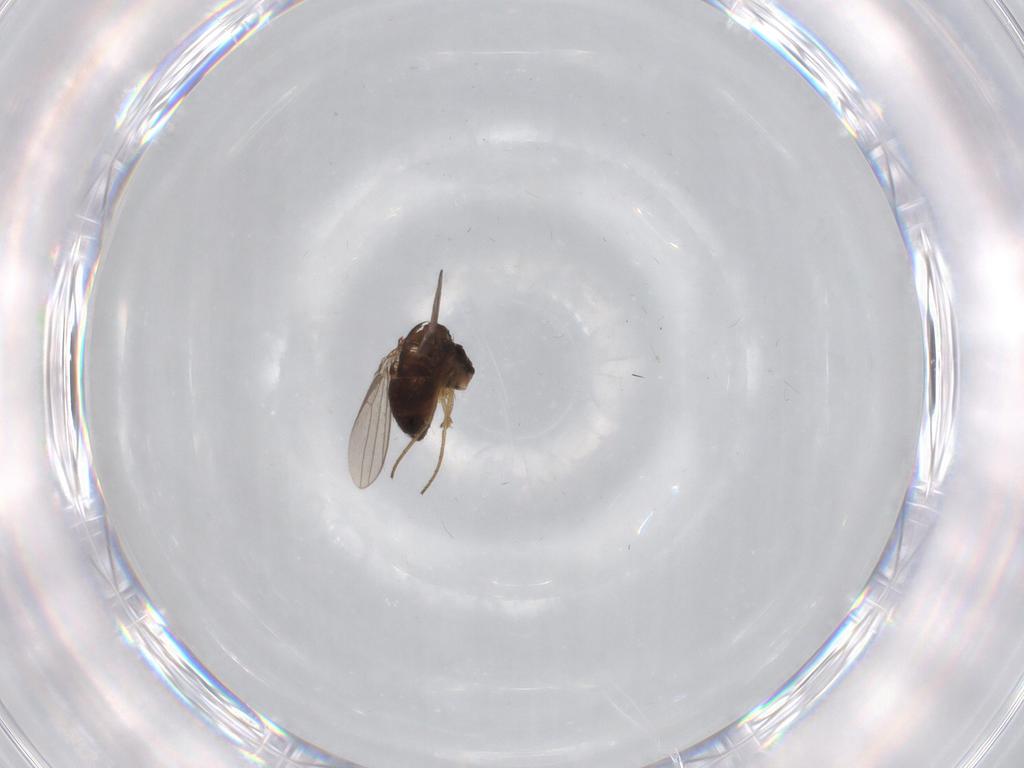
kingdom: Animalia
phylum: Arthropoda
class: Insecta
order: Diptera
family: Dolichopodidae
